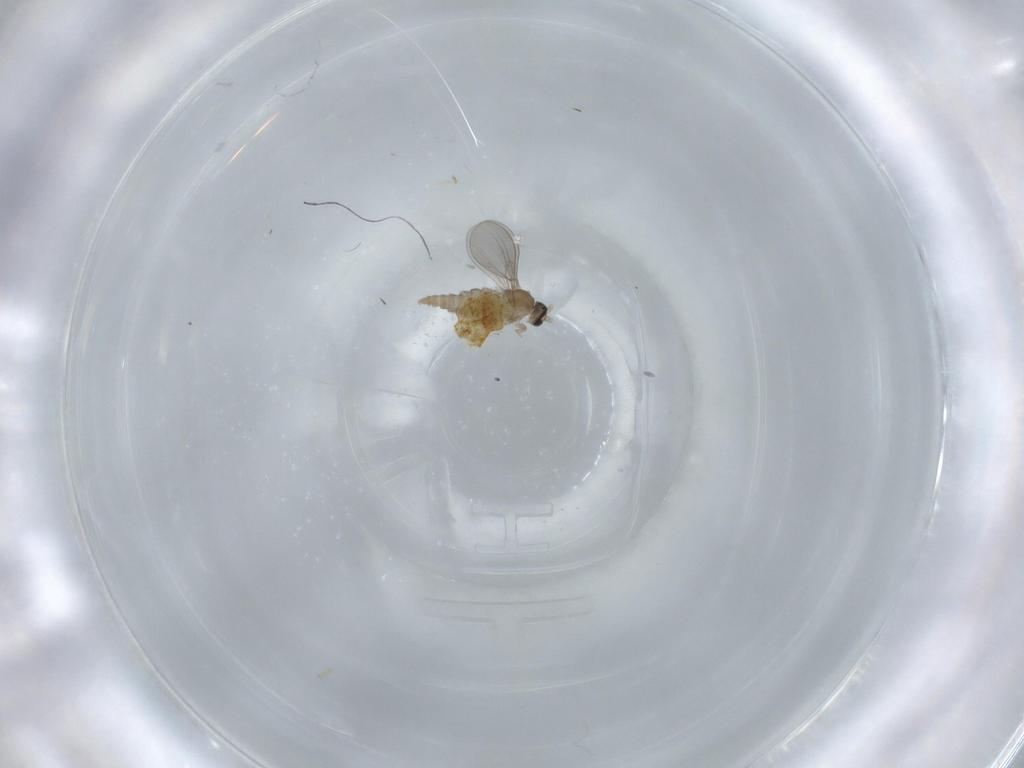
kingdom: Animalia
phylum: Arthropoda
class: Insecta
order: Diptera
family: Cecidomyiidae
